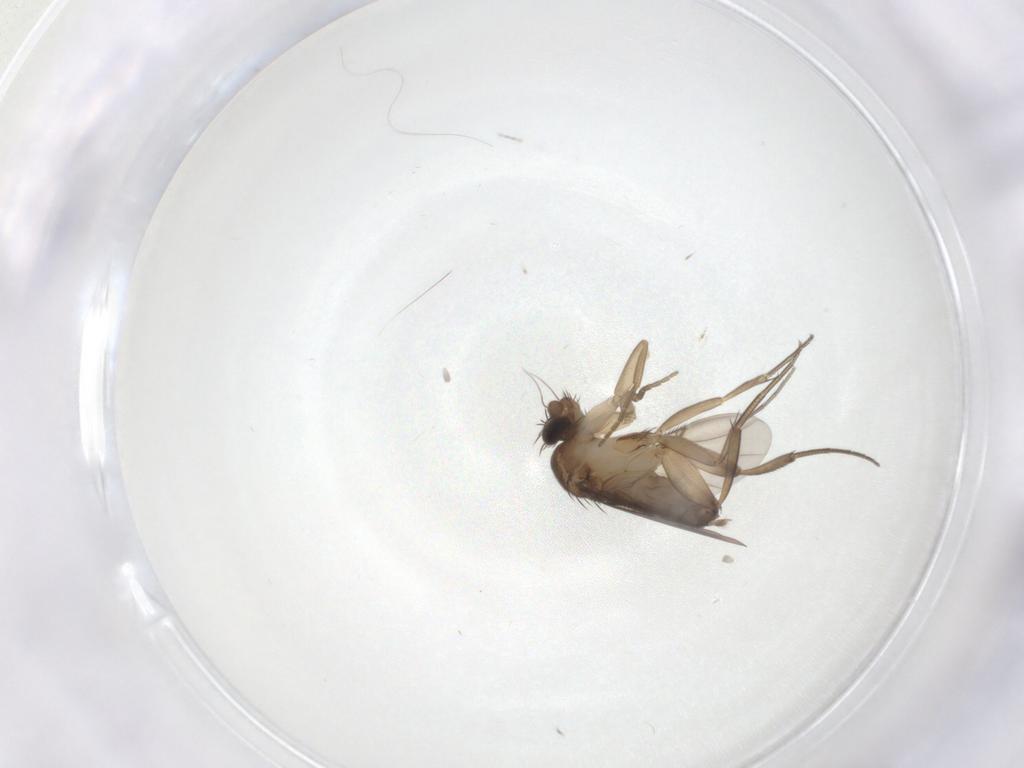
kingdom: Animalia
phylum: Arthropoda
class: Insecta
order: Diptera
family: Phoridae
